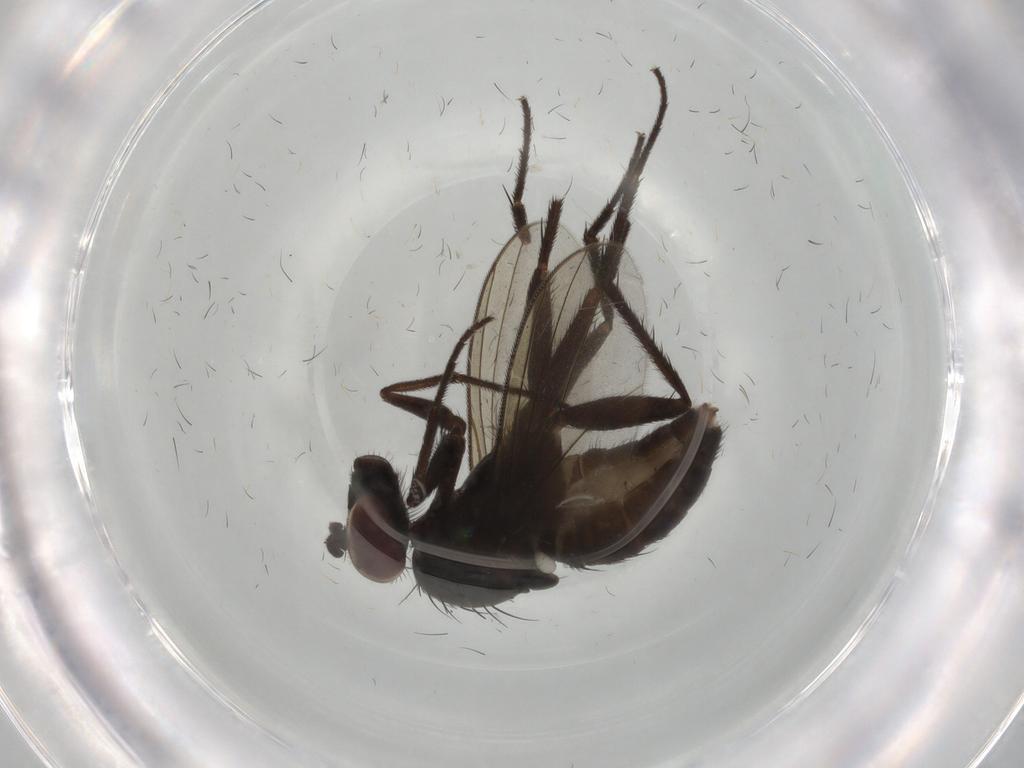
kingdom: Animalia
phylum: Arthropoda
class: Insecta
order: Diptera
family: Dolichopodidae
